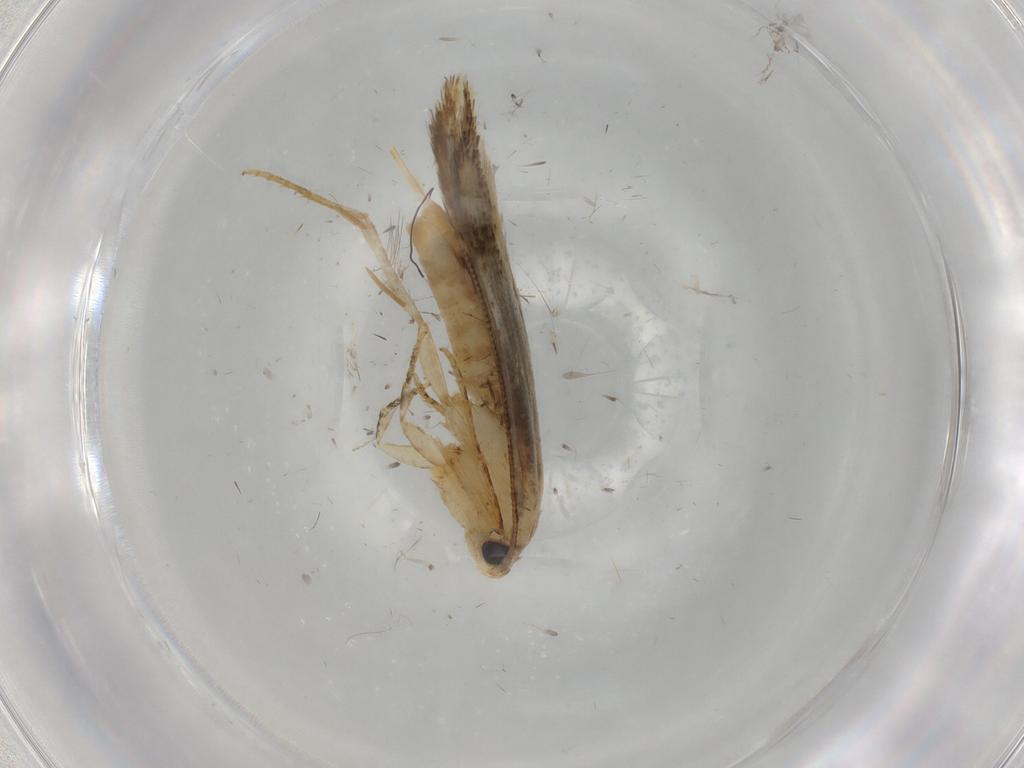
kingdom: Animalia
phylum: Arthropoda
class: Insecta
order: Lepidoptera
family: Tineidae
